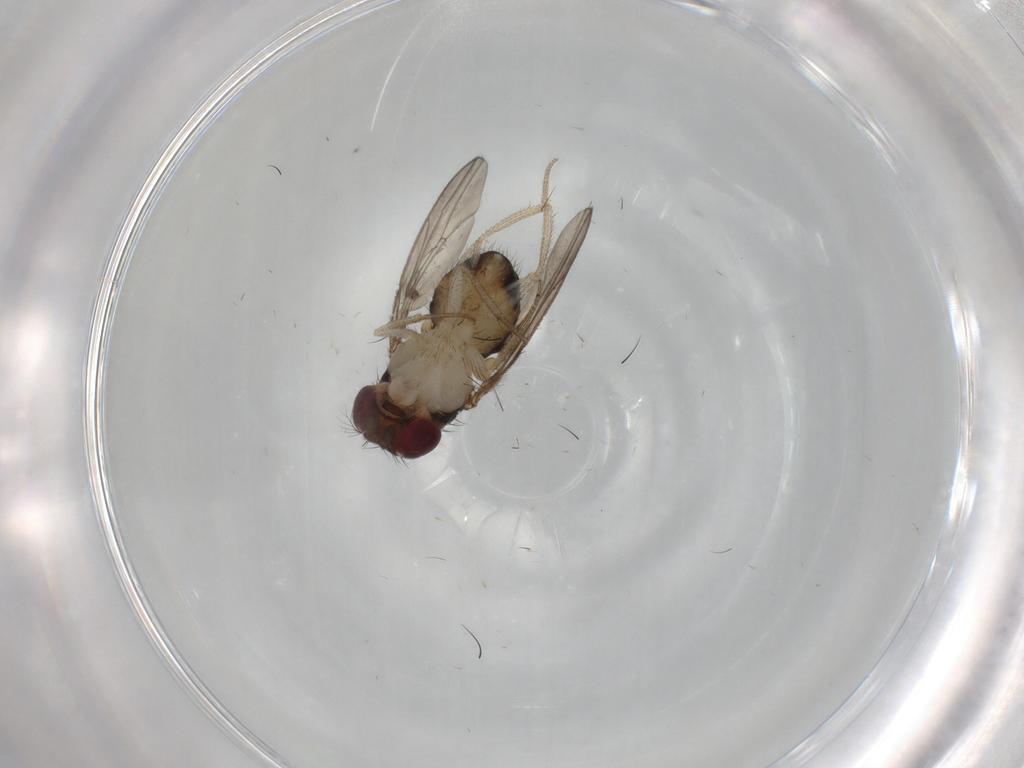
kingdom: Animalia
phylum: Arthropoda
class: Insecta
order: Diptera
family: Drosophilidae
